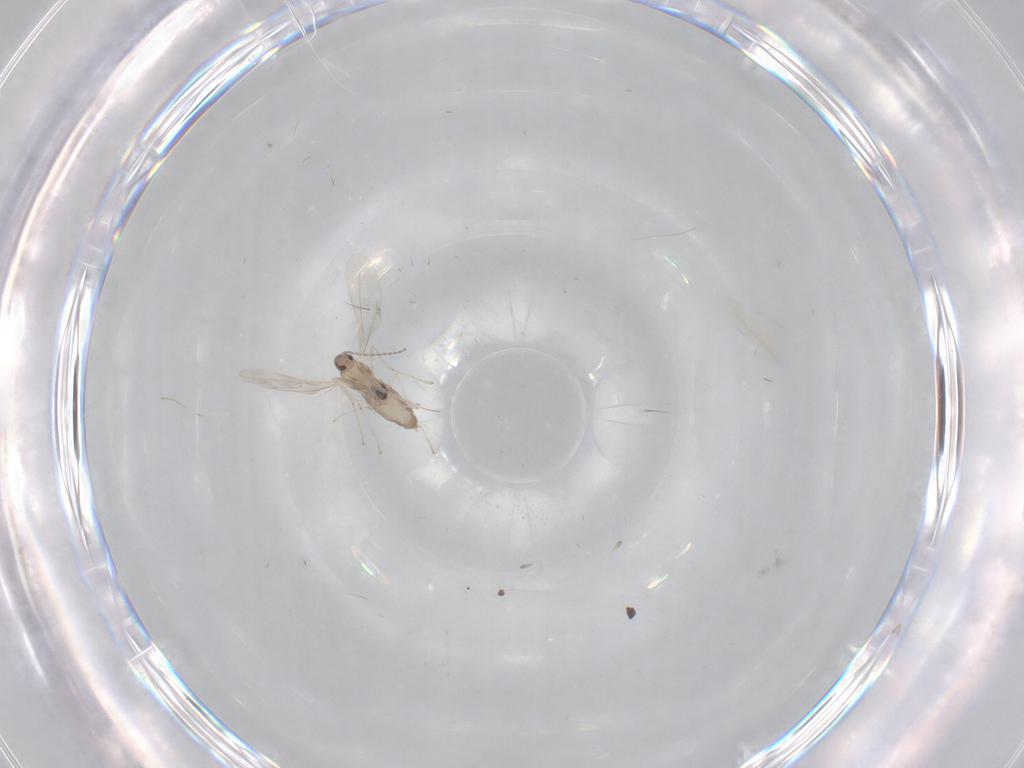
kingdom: Animalia
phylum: Arthropoda
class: Insecta
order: Diptera
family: Cecidomyiidae
